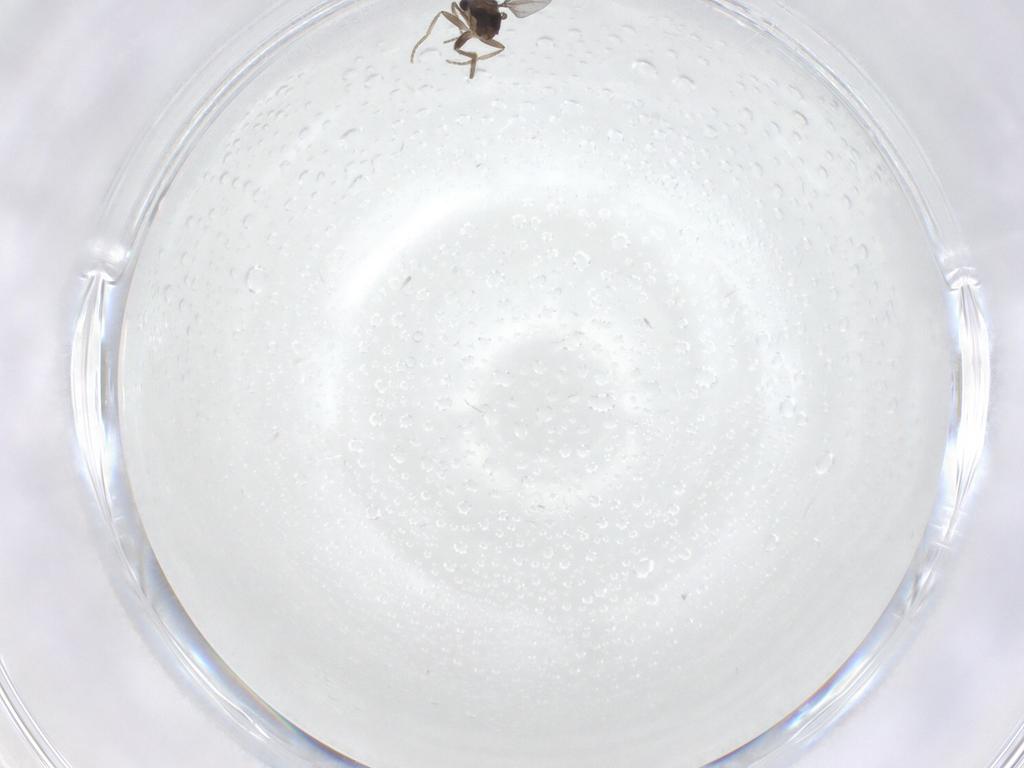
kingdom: Animalia
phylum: Arthropoda
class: Insecta
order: Diptera
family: Phoridae
